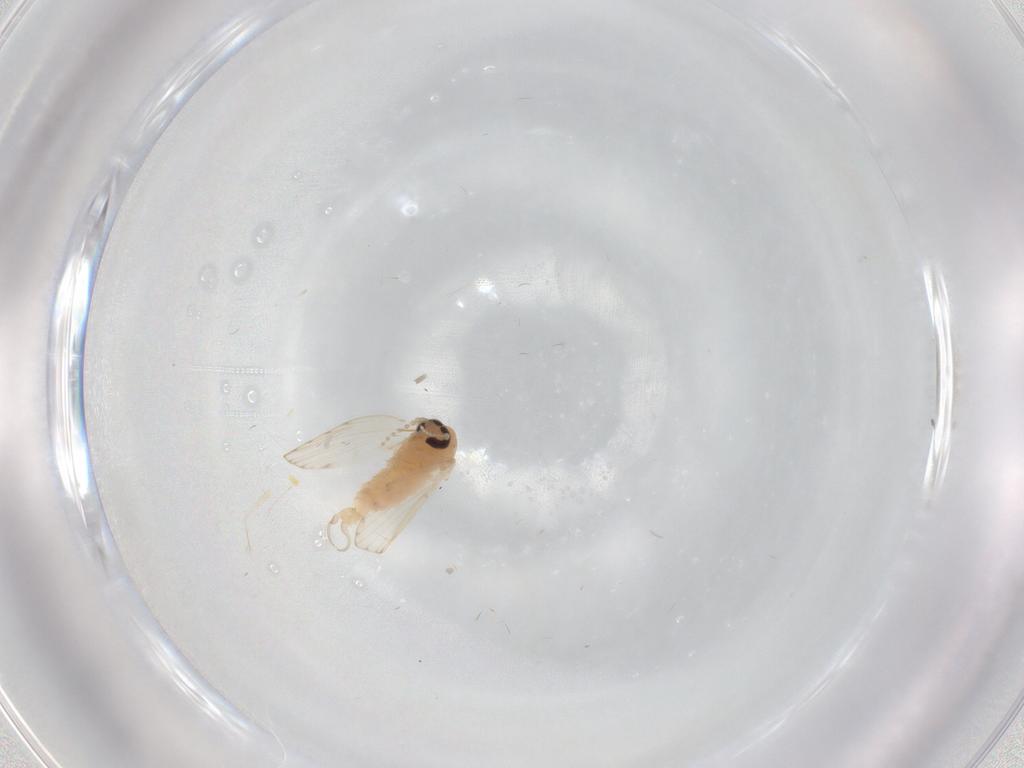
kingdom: Animalia
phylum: Arthropoda
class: Insecta
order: Diptera
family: Psychodidae
